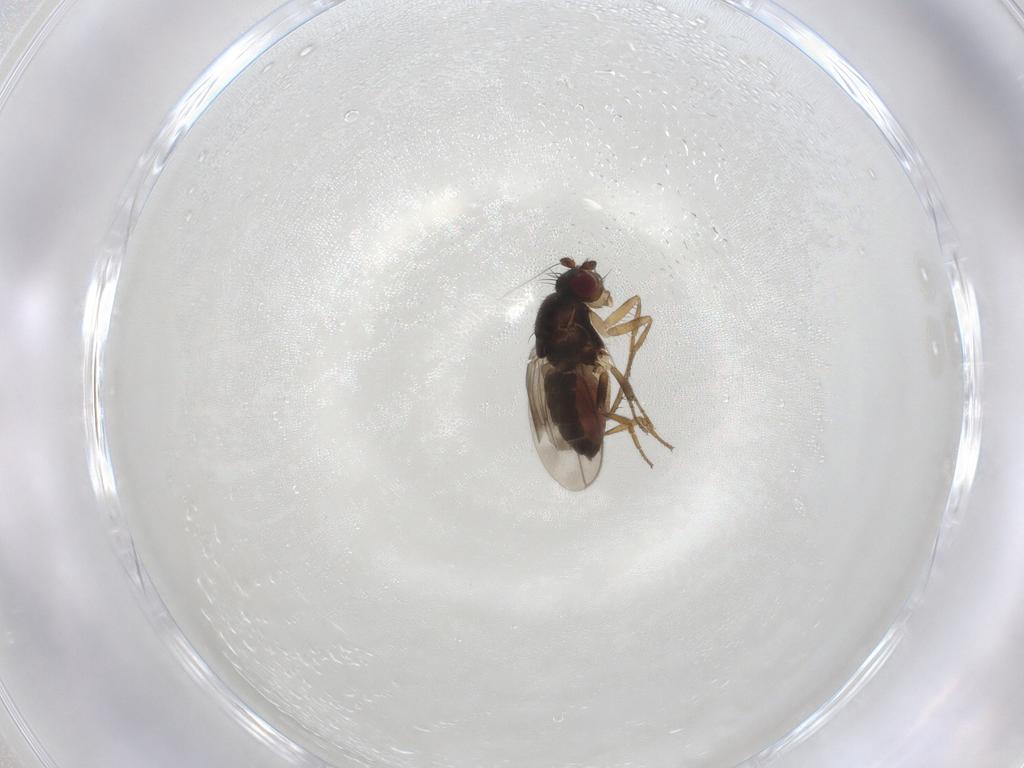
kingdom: Animalia
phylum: Arthropoda
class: Insecta
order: Diptera
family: Sphaeroceridae
